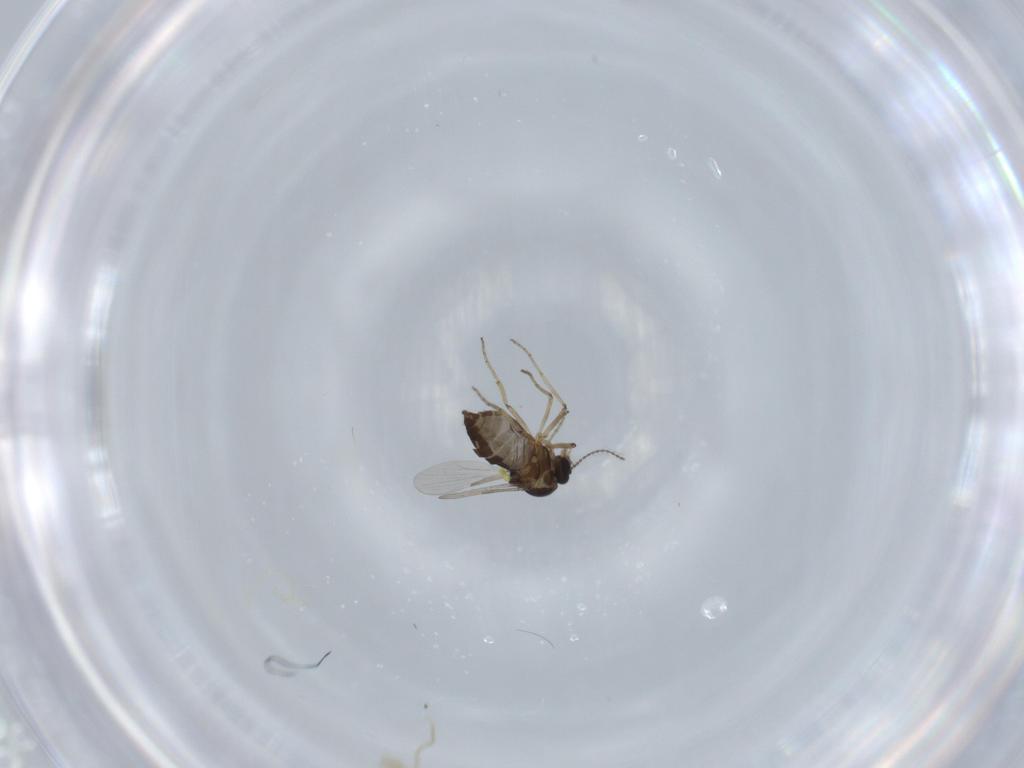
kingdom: Animalia
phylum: Arthropoda
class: Insecta
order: Diptera
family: Ceratopogonidae
